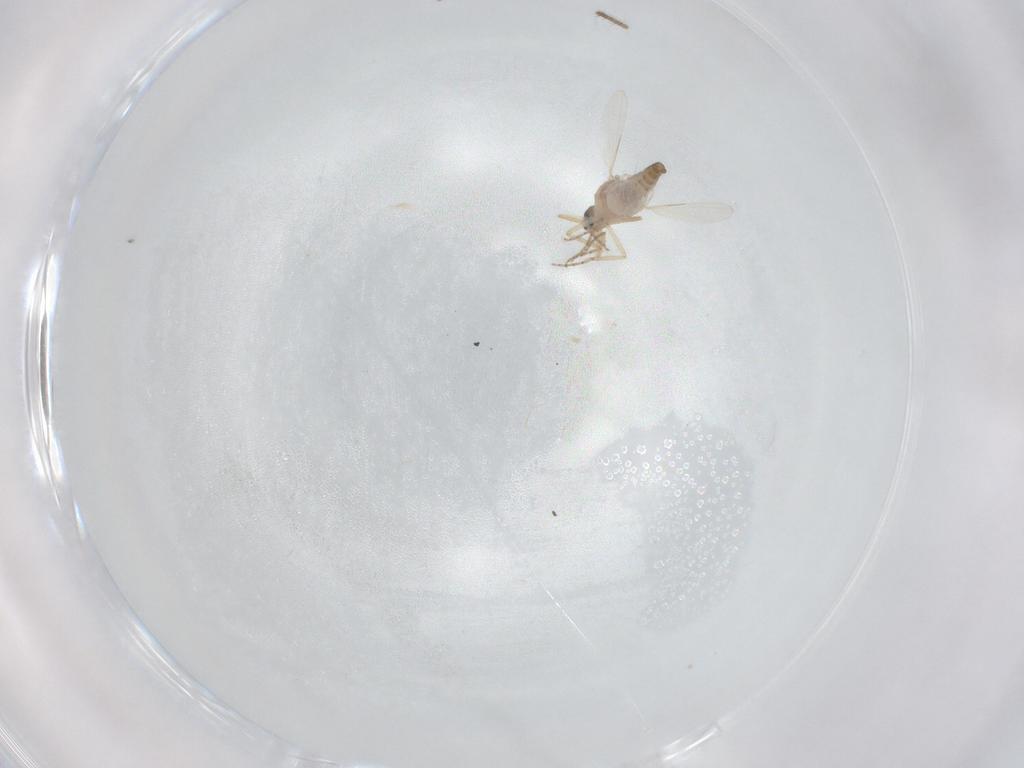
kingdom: Animalia
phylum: Arthropoda
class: Insecta
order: Diptera
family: Ceratopogonidae
